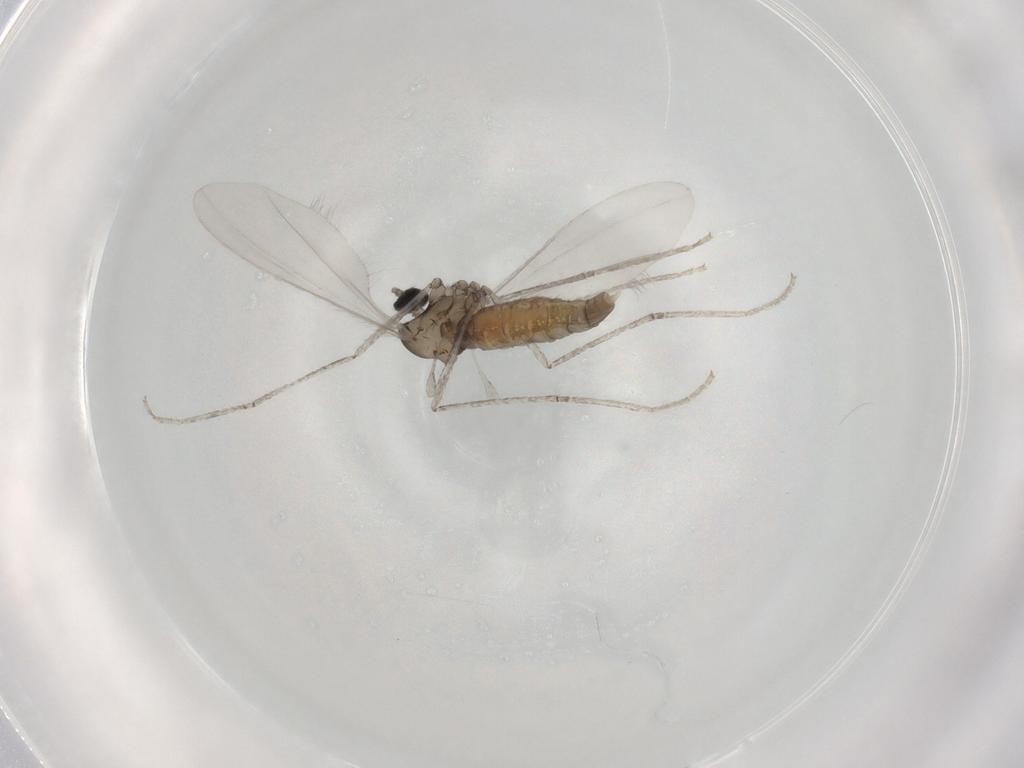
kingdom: Animalia
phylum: Arthropoda
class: Insecta
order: Diptera
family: Cecidomyiidae
